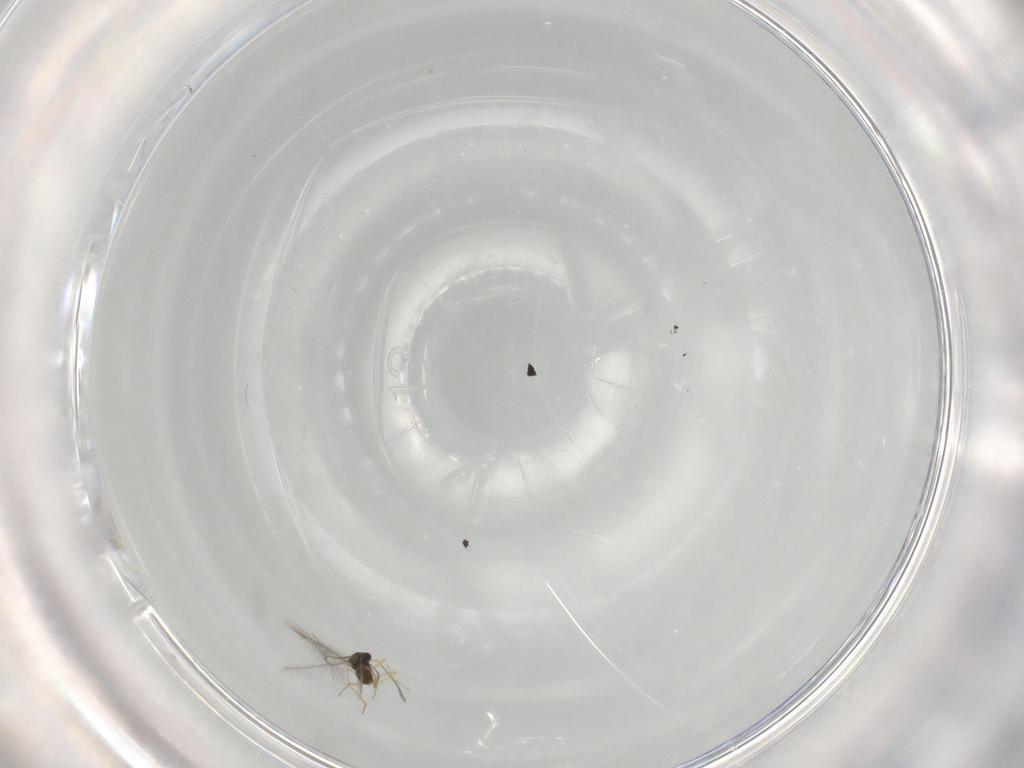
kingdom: Animalia
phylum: Arthropoda
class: Insecta
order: Hymenoptera
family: Mymaridae
